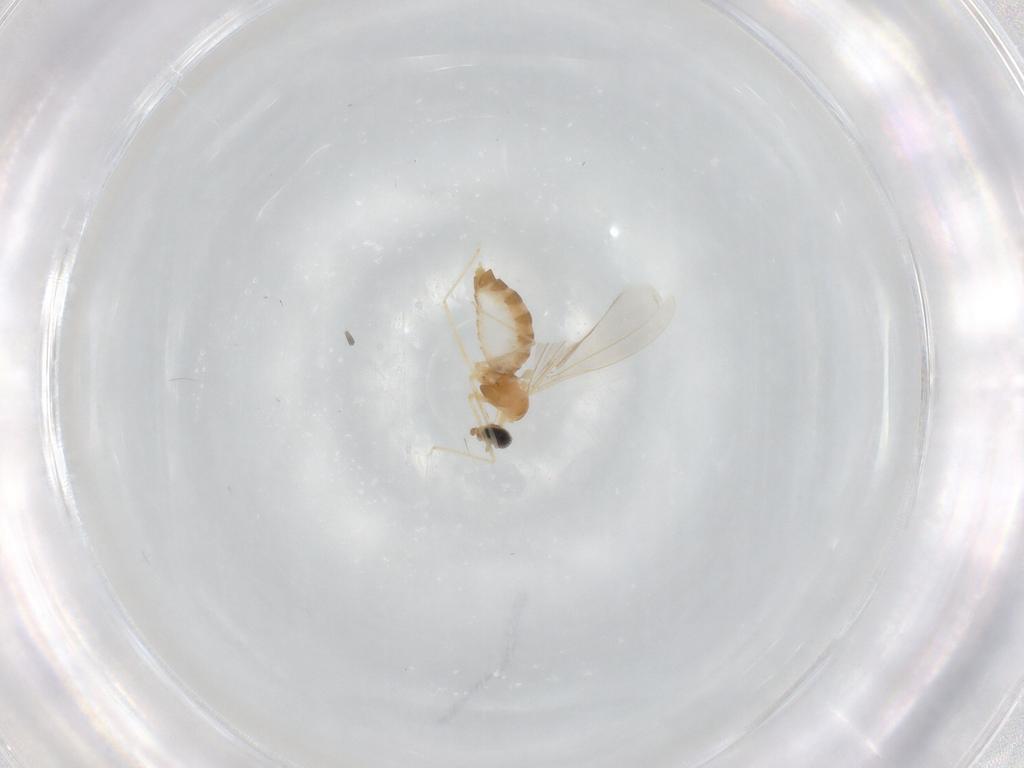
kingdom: Animalia
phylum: Arthropoda
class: Insecta
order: Diptera
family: Cecidomyiidae
